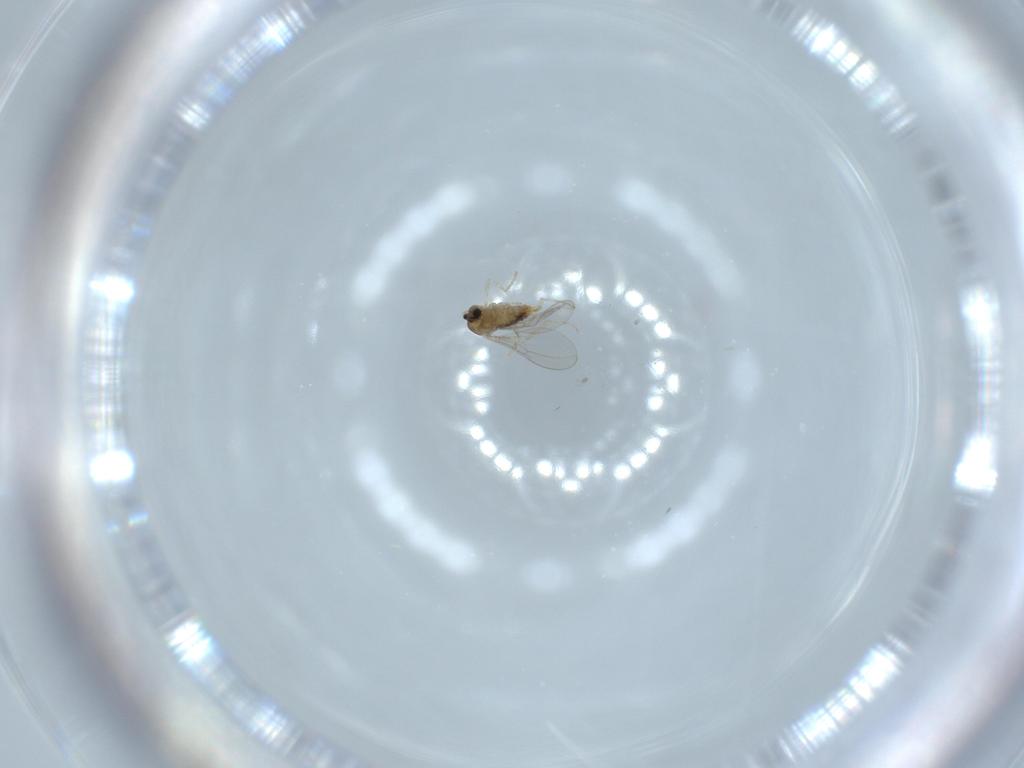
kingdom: Animalia
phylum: Arthropoda
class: Insecta
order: Diptera
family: Cecidomyiidae
